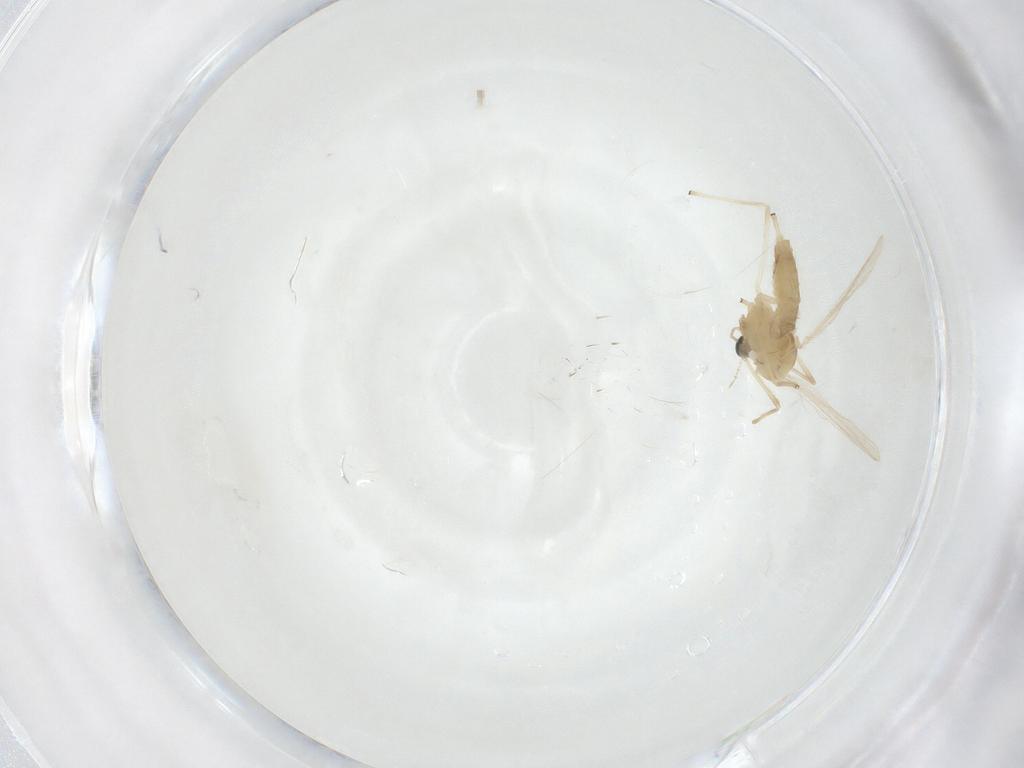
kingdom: Animalia
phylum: Arthropoda
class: Insecta
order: Diptera
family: Chironomidae
